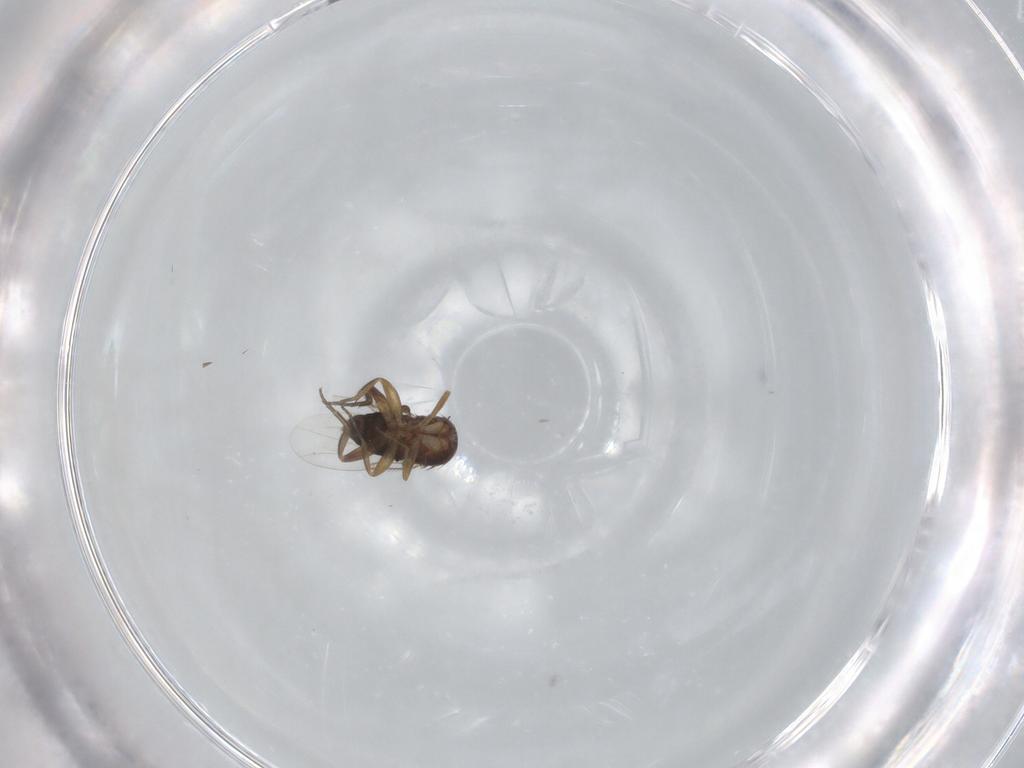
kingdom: Animalia
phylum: Arthropoda
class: Insecta
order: Diptera
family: Phoridae
